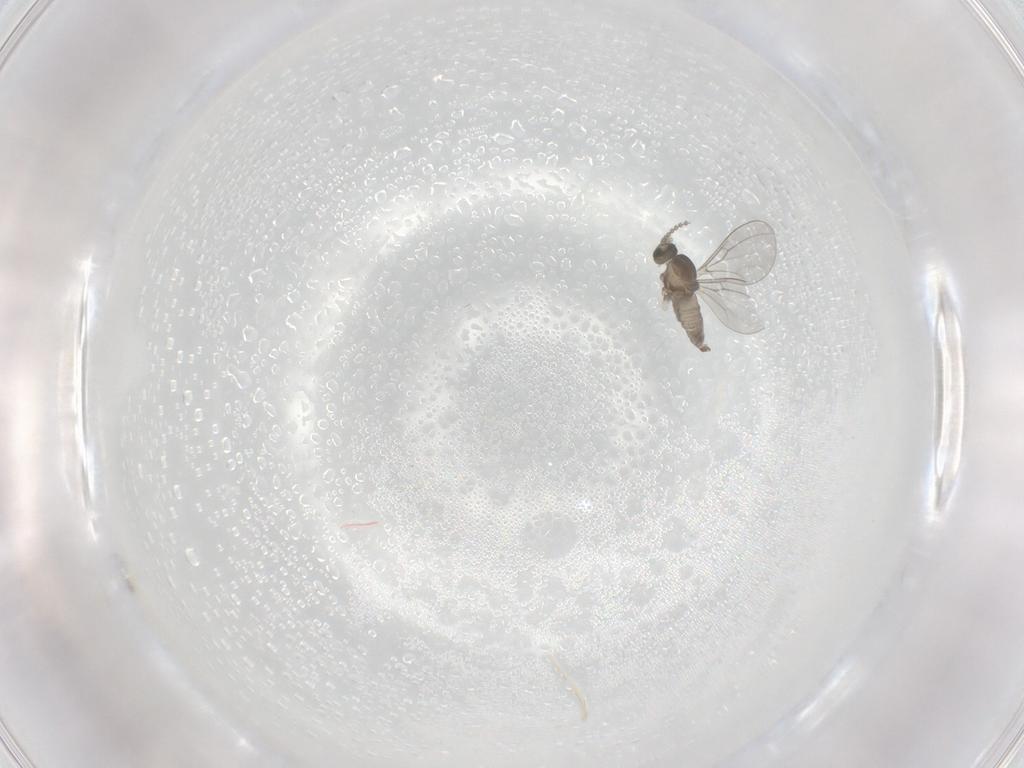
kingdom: Animalia
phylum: Arthropoda
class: Insecta
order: Diptera
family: Cecidomyiidae
